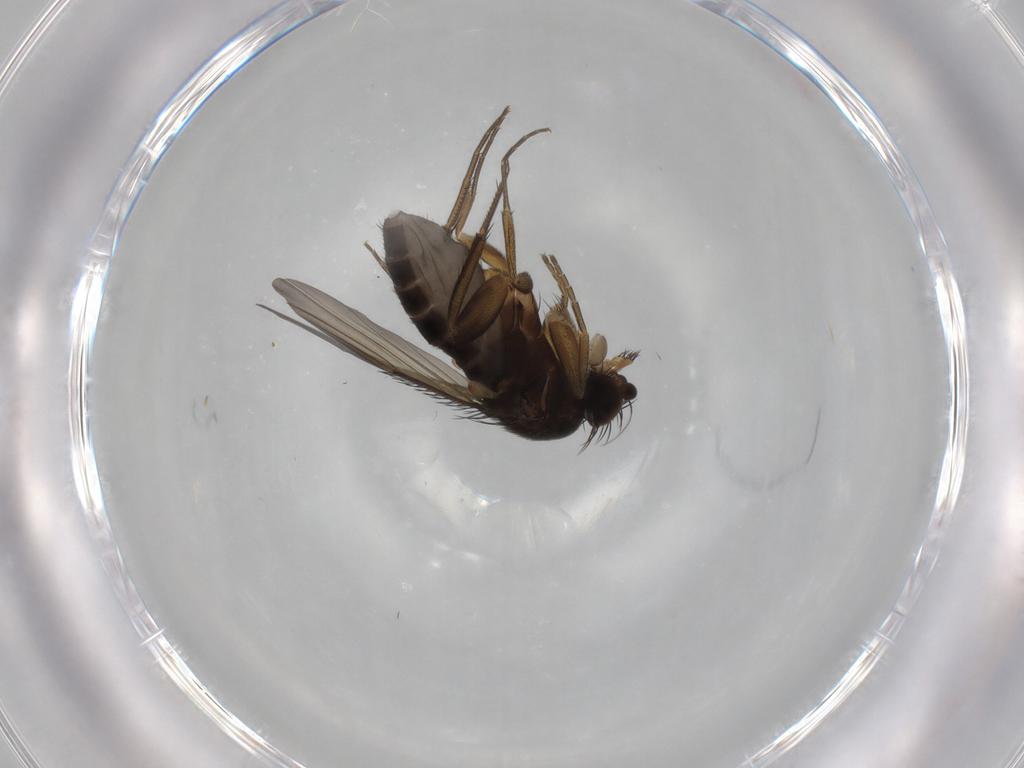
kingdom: Animalia
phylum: Arthropoda
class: Insecta
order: Diptera
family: Phoridae
